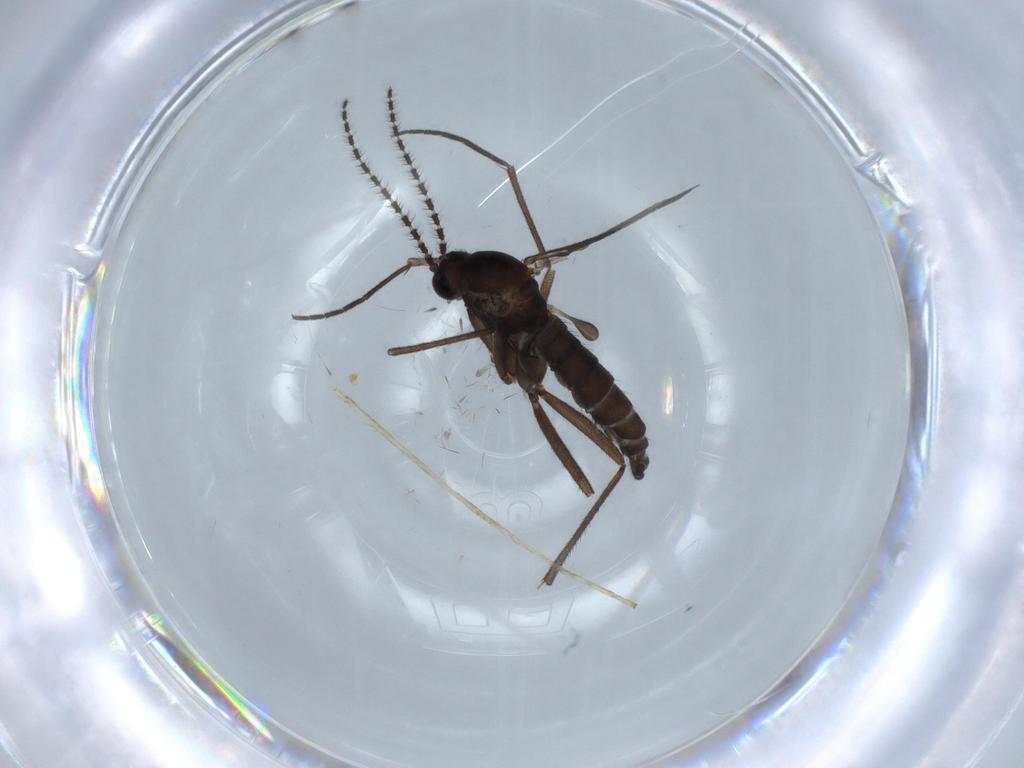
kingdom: Animalia
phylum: Arthropoda
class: Insecta
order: Diptera
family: Sciaridae
